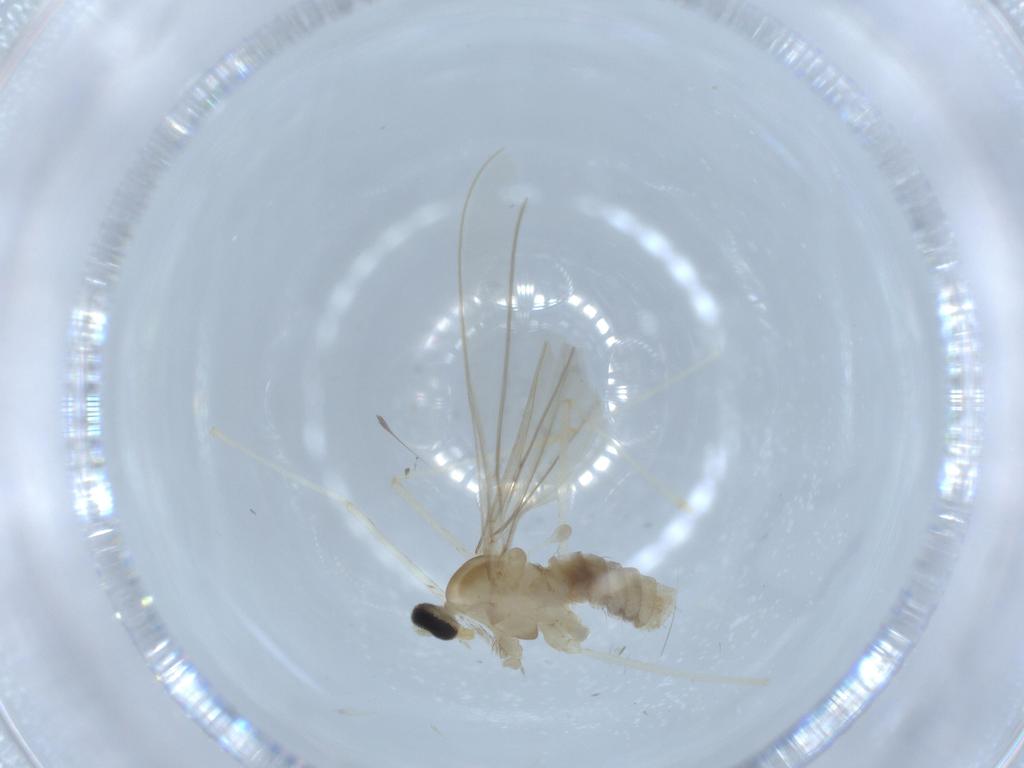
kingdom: Animalia
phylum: Arthropoda
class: Insecta
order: Diptera
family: Cecidomyiidae
